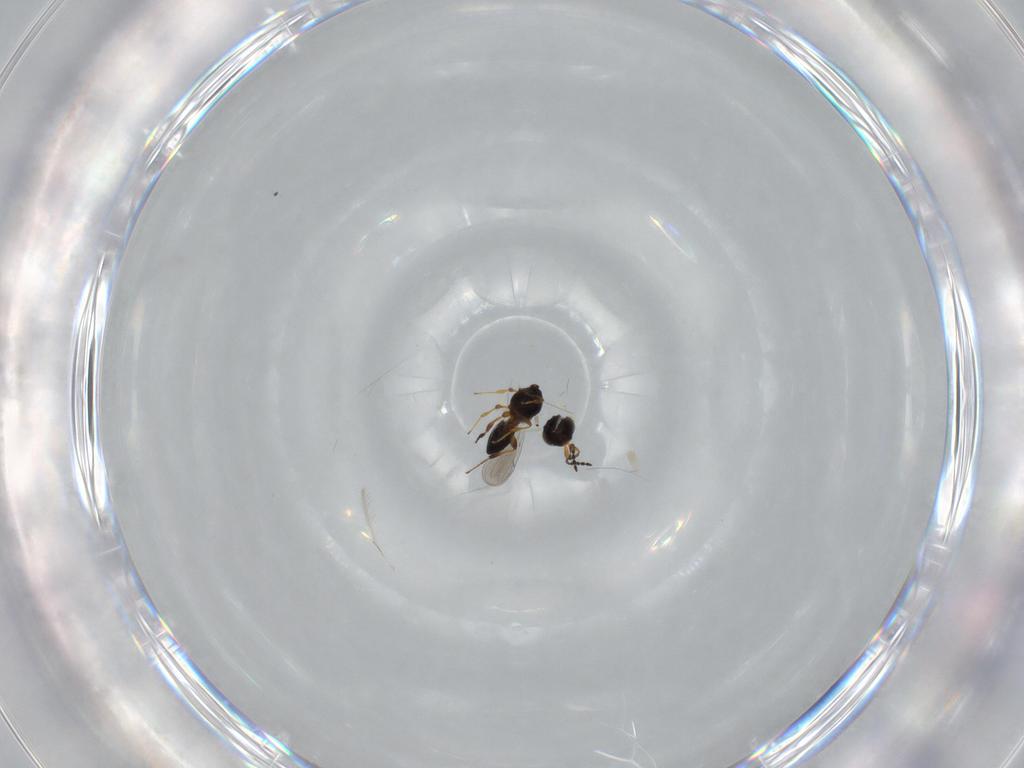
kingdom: Animalia
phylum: Arthropoda
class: Insecta
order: Hymenoptera
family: Platygastridae
